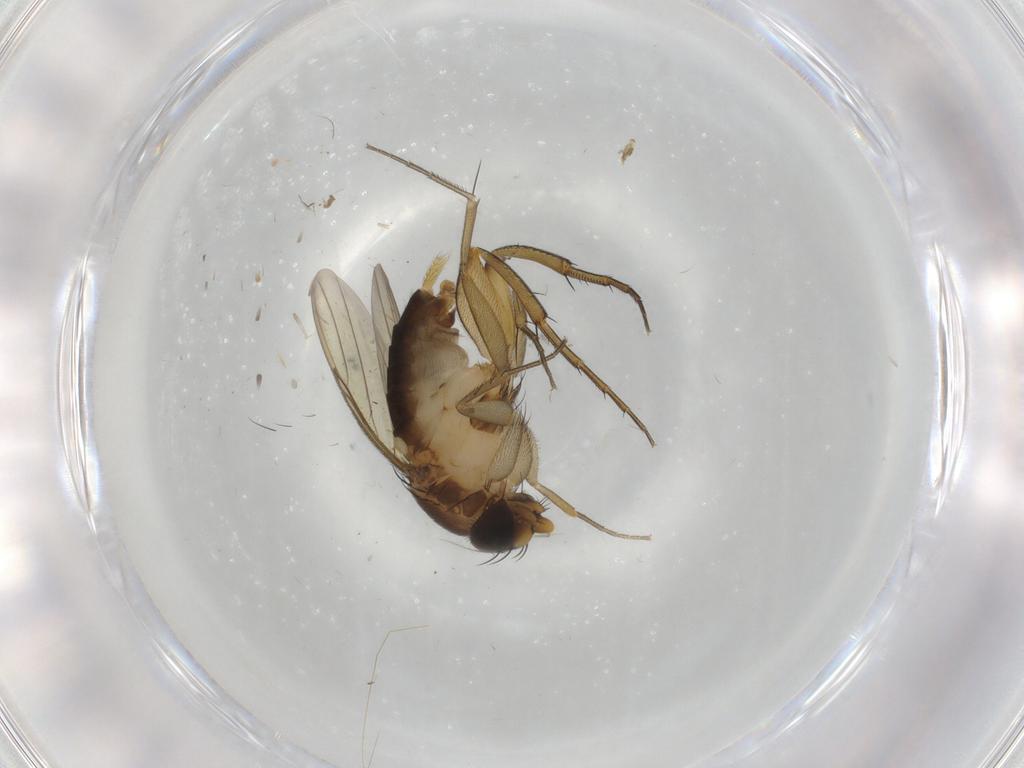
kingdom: Animalia
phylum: Arthropoda
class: Insecta
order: Diptera
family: Phoridae
